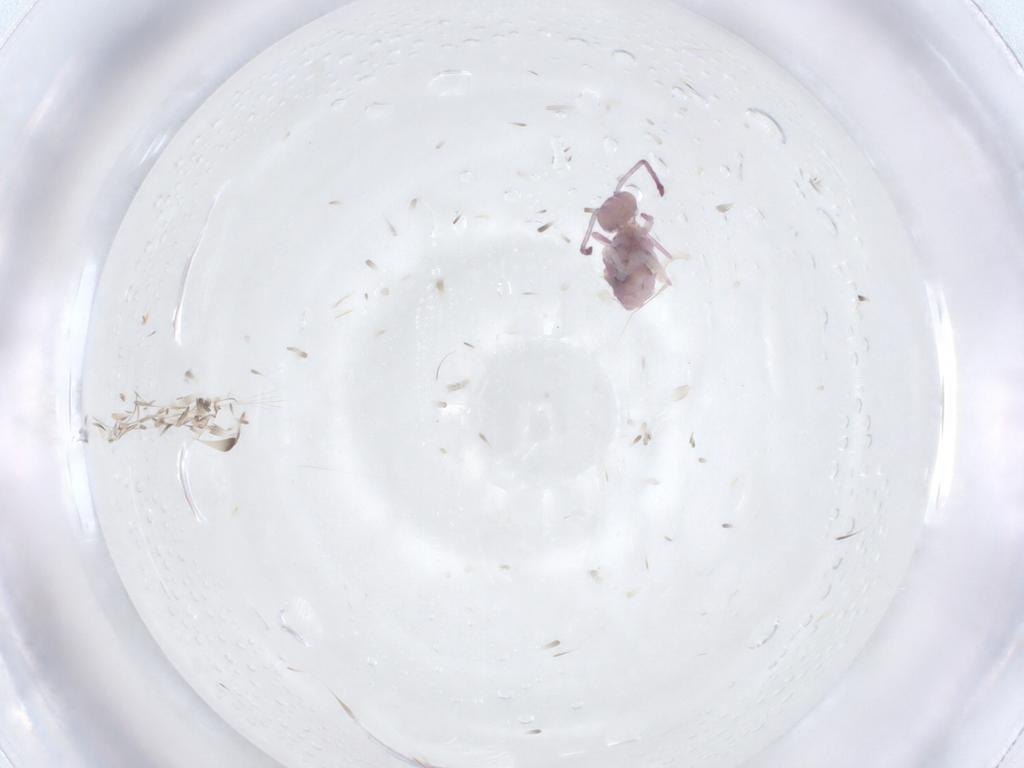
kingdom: Animalia
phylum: Arthropoda
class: Collembola
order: Symphypleona
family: Dicyrtomidae
